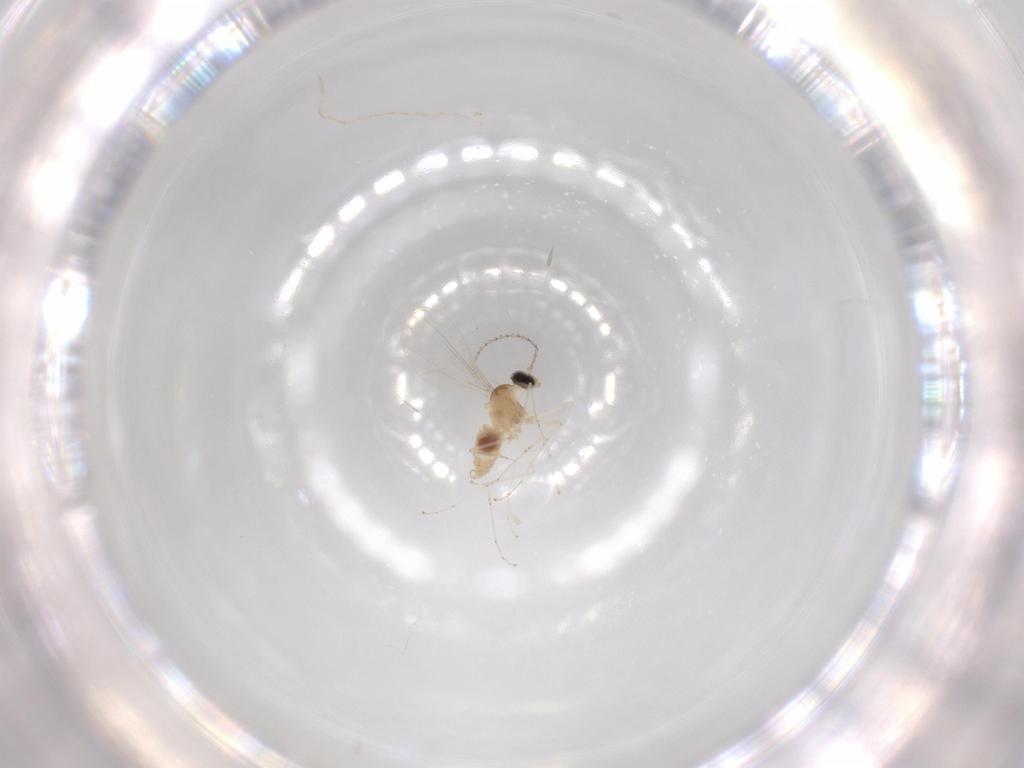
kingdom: Animalia
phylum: Arthropoda
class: Insecta
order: Diptera
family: Cecidomyiidae
